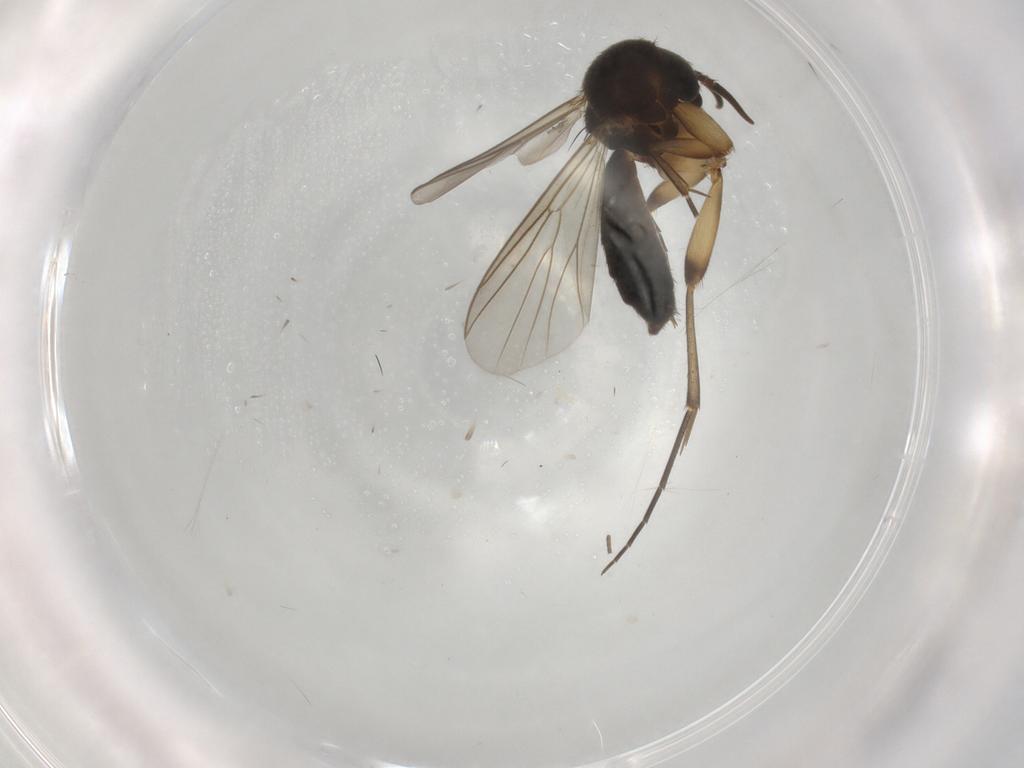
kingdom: Animalia
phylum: Arthropoda
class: Insecta
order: Diptera
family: Mycetophilidae
